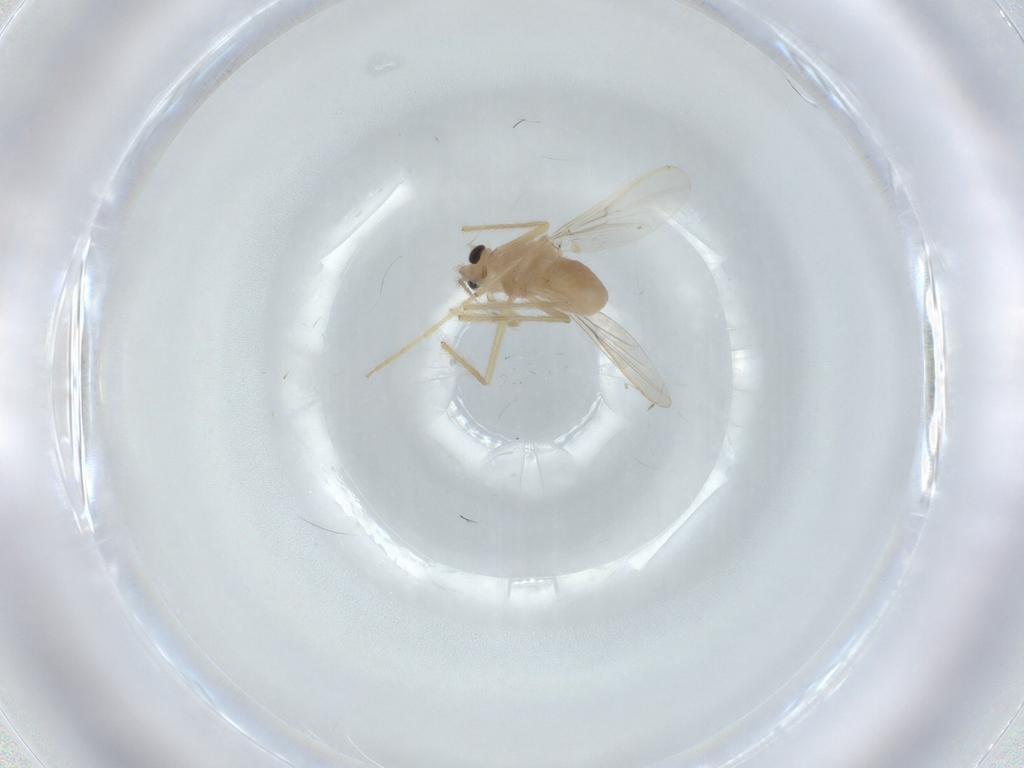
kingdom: Animalia
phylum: Arthropoda
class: Insecta
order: Diptera
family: Chironomidae
